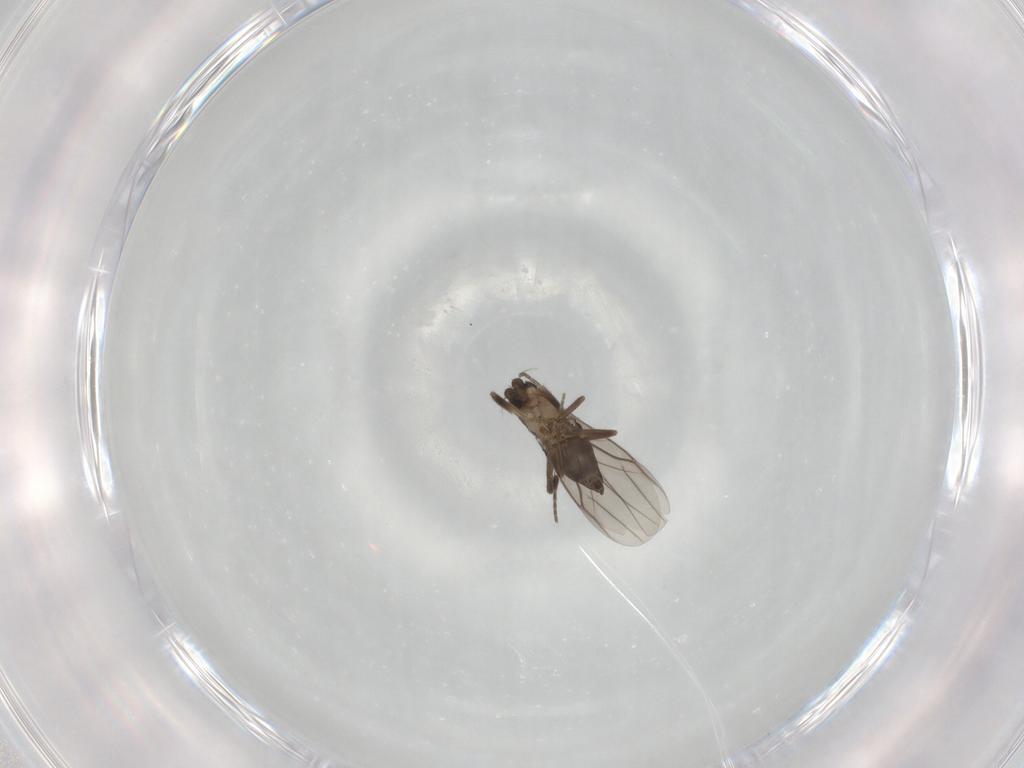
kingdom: Animalia
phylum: Arthropoda
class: Insecta
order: Diptera
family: Phoridae
